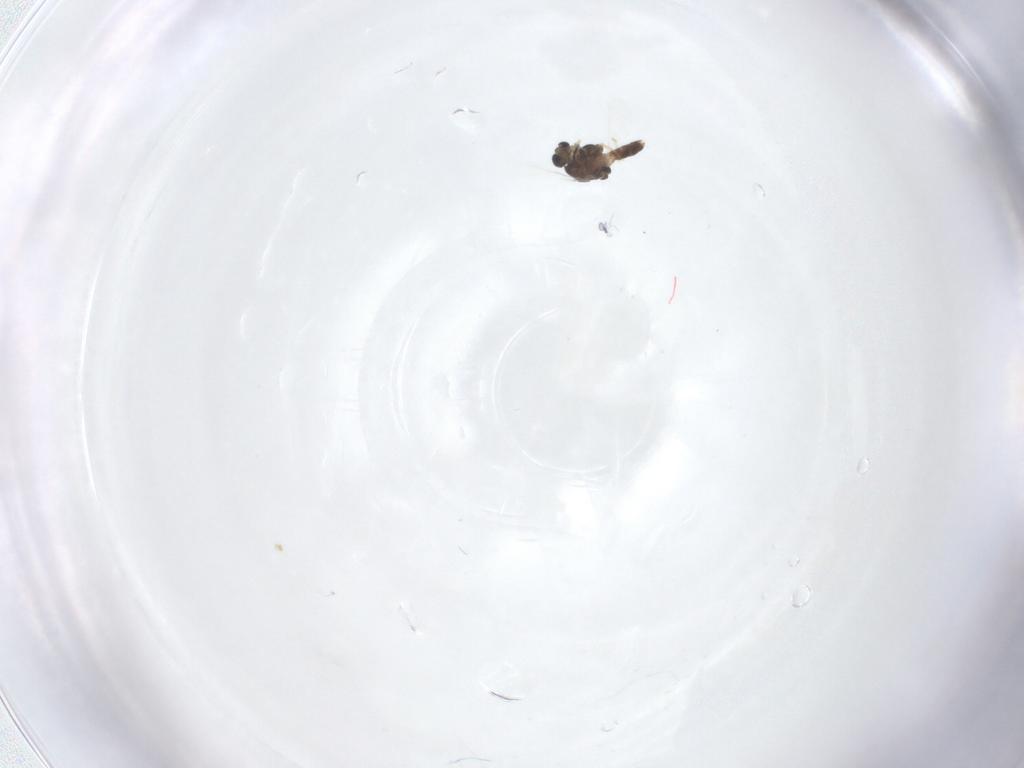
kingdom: Animalia
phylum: Arthropoda
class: Insecta
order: Diptera
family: Chironomidae
